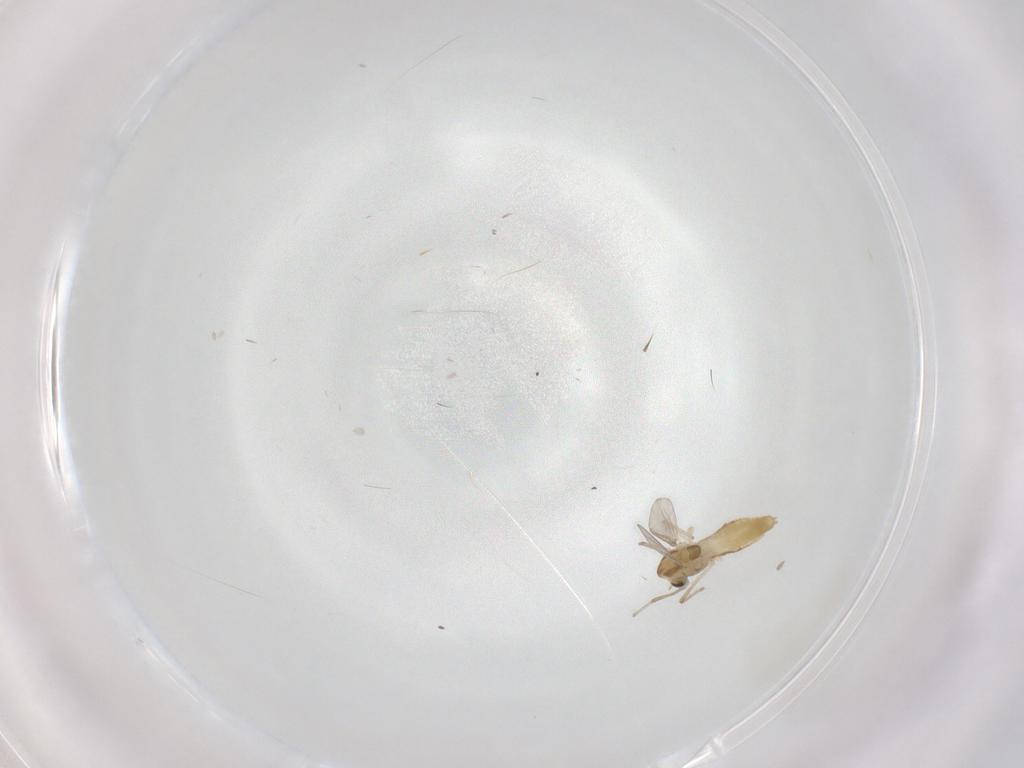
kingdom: Animalia
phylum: Arthropoda
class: Insecta
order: Diptera
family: Chironomidae
